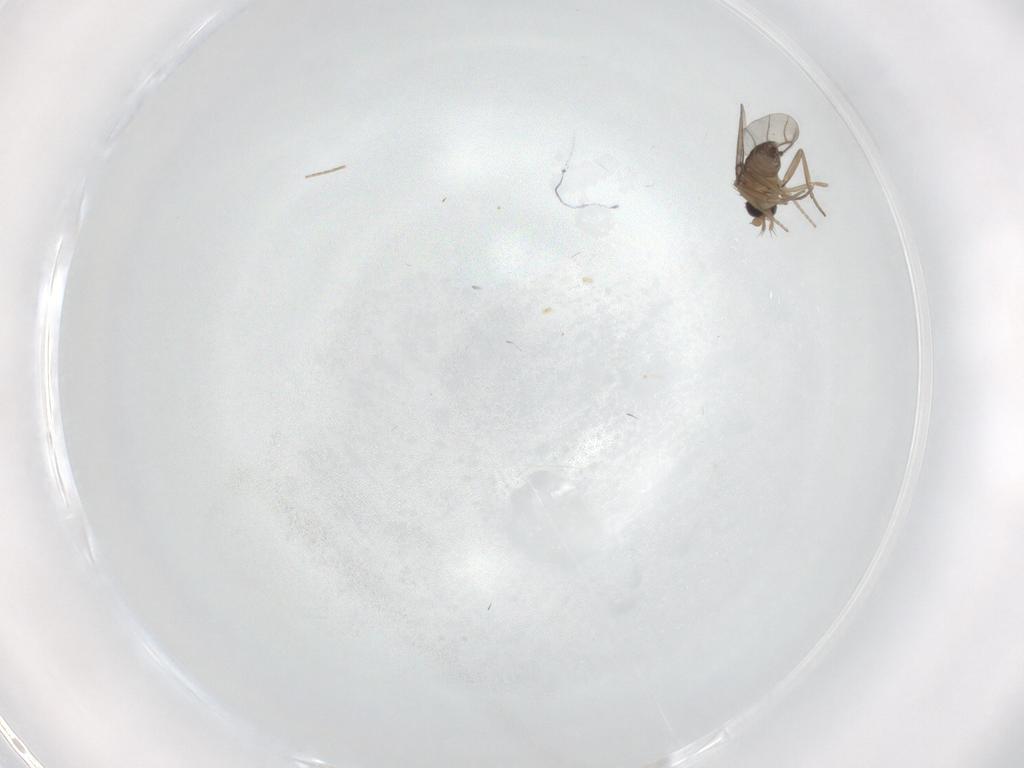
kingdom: Animalia
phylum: Arthropoda
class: Insecta
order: Diptera
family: Phoridae
